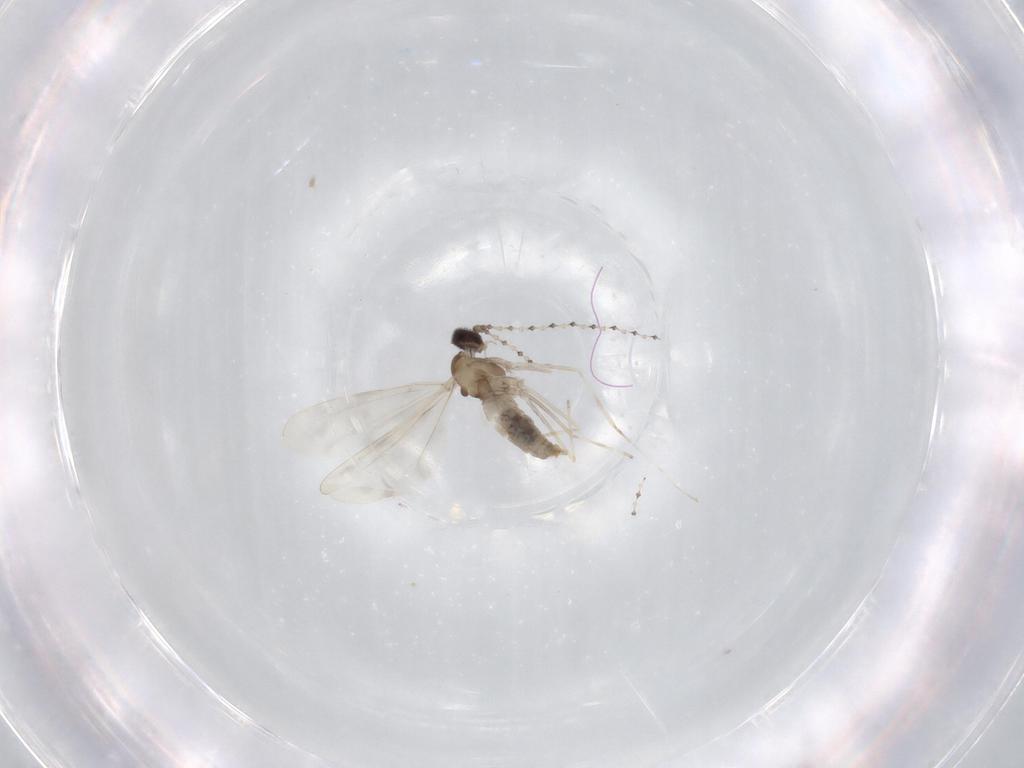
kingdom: Animalia
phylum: Arthropoda
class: Insecta
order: Diptera
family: Cecidomyiidae
